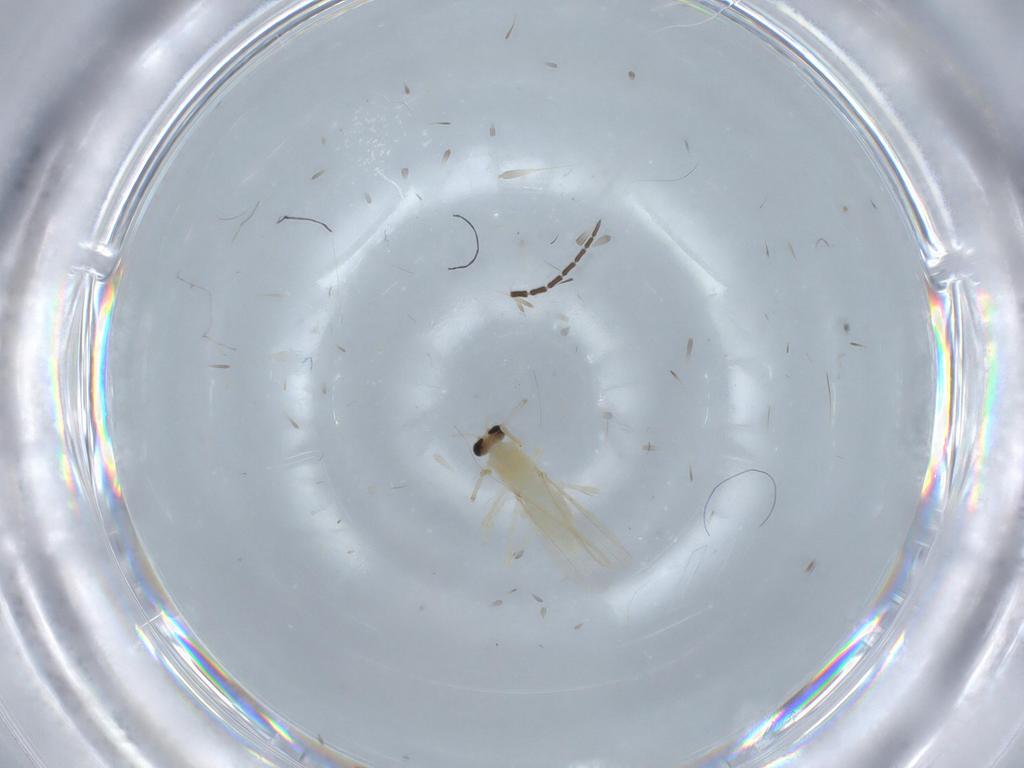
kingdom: Animalia
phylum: Arthropoda
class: Insecta
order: Diptera
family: Chironomidae
